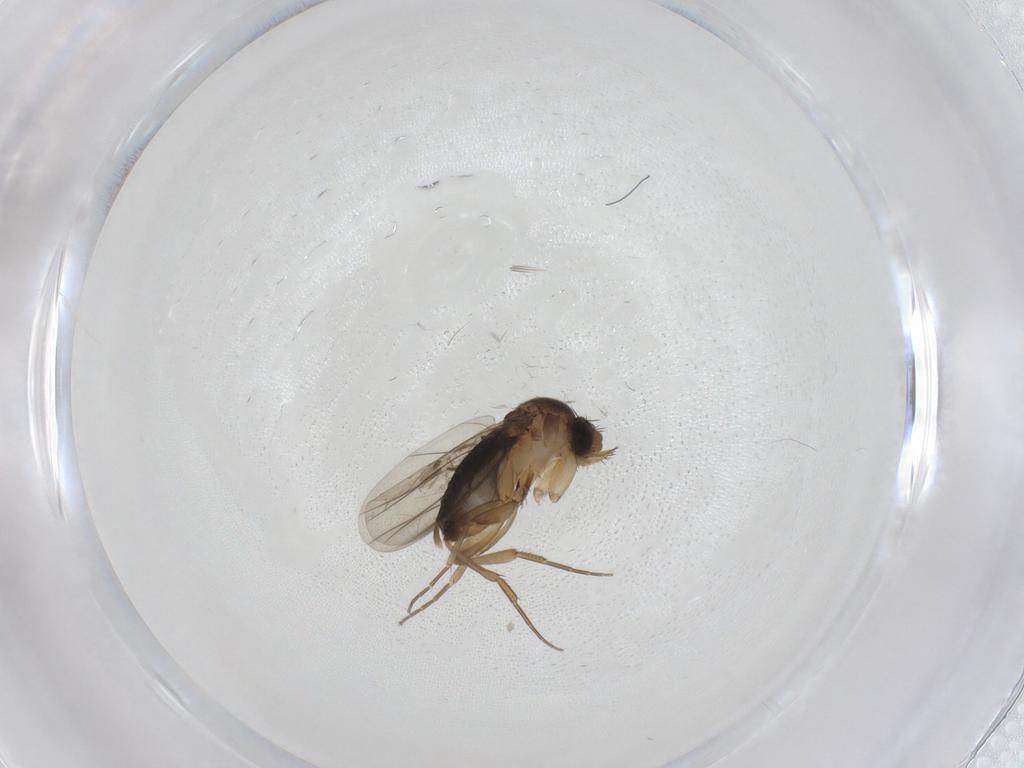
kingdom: Animalia
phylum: Arthropoda
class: Insecta
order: Diptera
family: Phoridae
